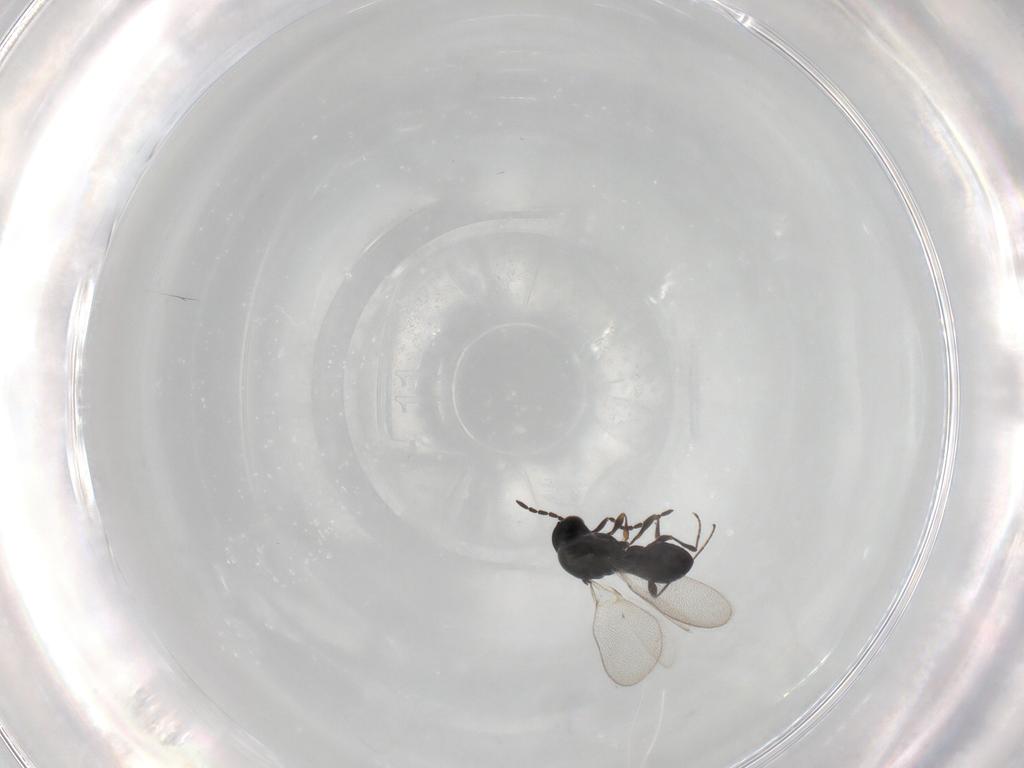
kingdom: Animalia
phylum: Arthropoda
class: Insecta
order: Hymenoptera
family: Platygastridae
